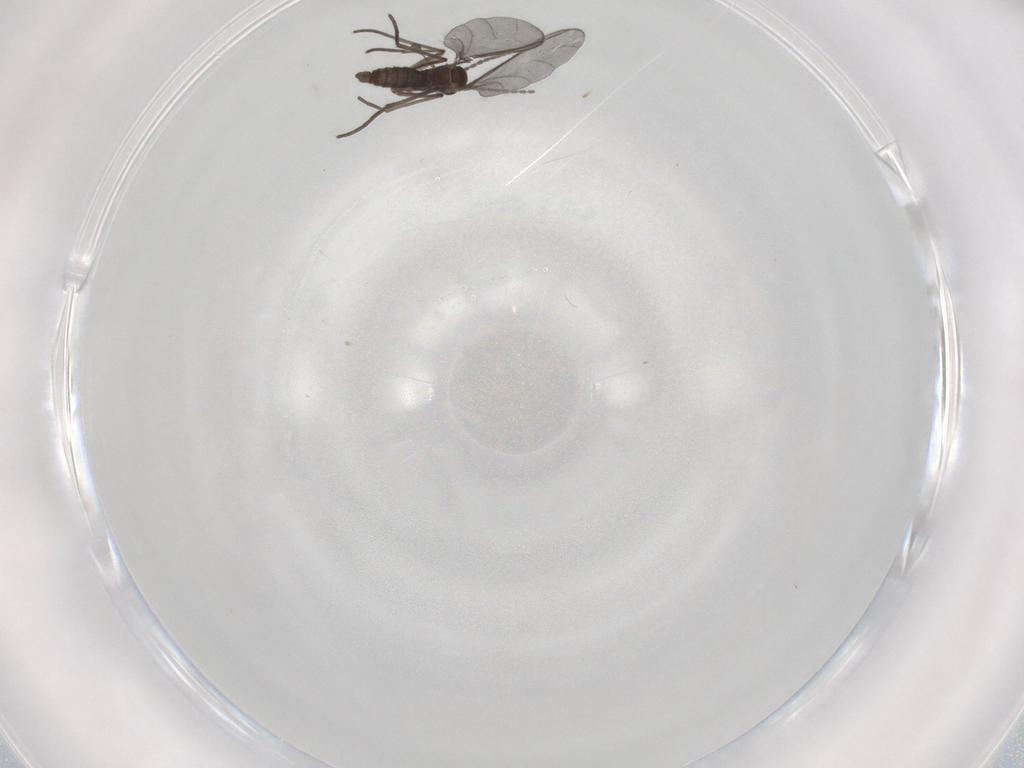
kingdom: Animalia
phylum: Arthropoda
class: Insecta
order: Diptera
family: Sciaridae
